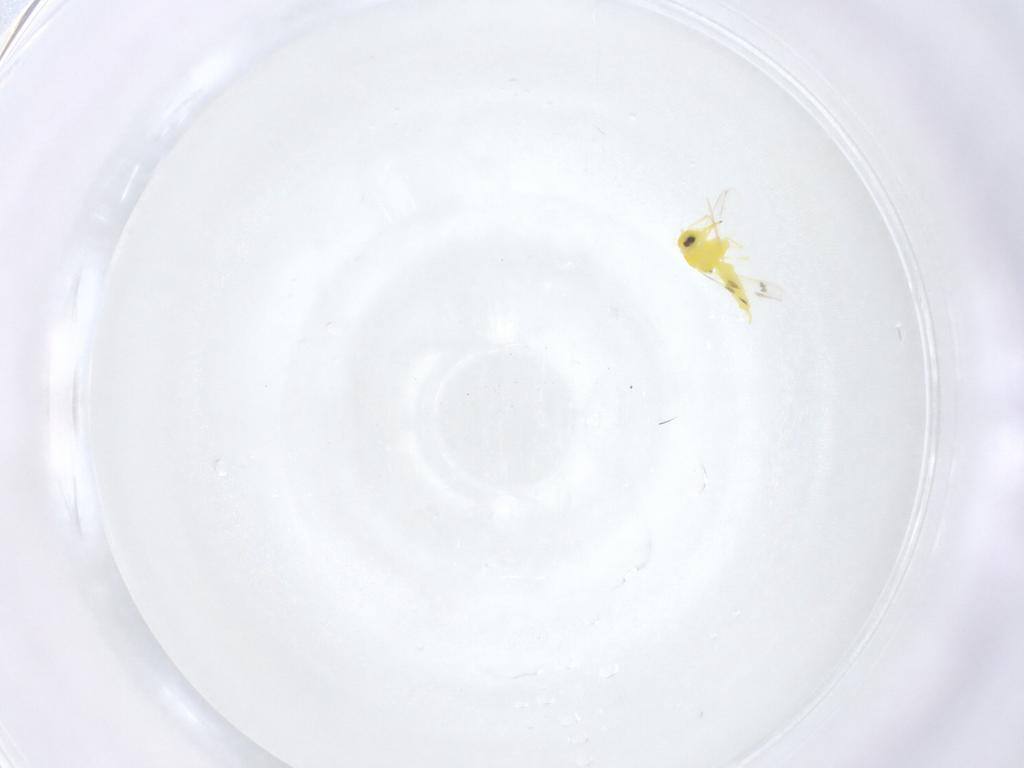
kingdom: Animalia
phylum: Arthropoda
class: Insecta
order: Hemiptera
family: Aleyrodidae
